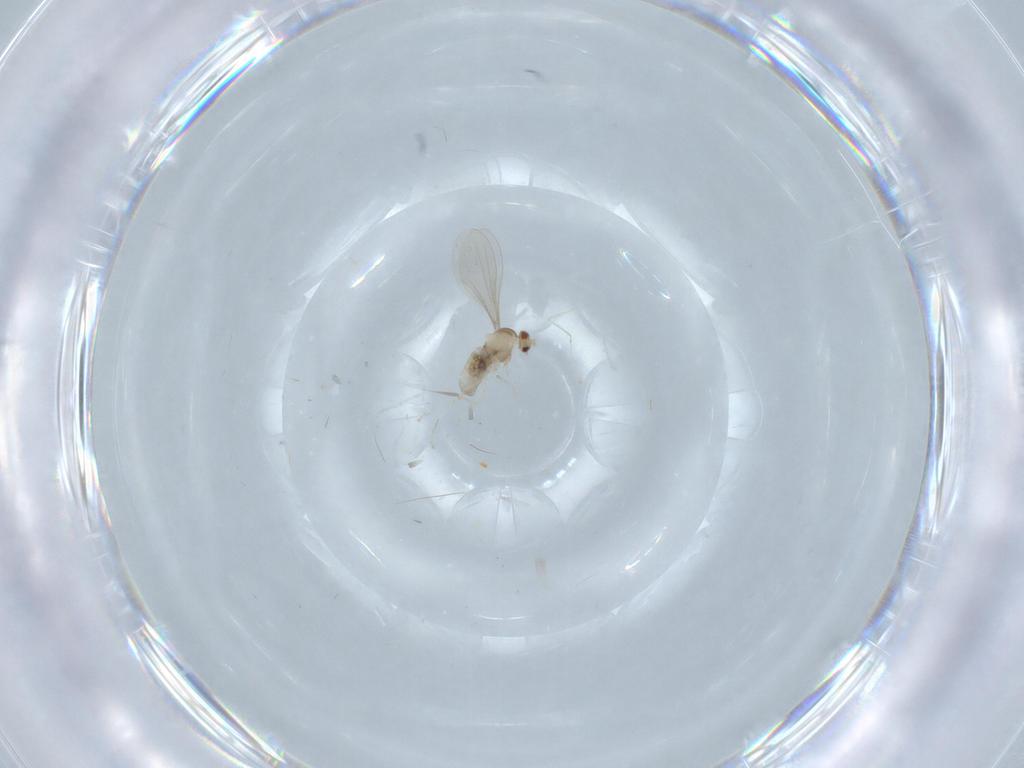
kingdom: Animalia
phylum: Arthropoda
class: Insecta
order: Diptera
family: Cecidomyiidae
